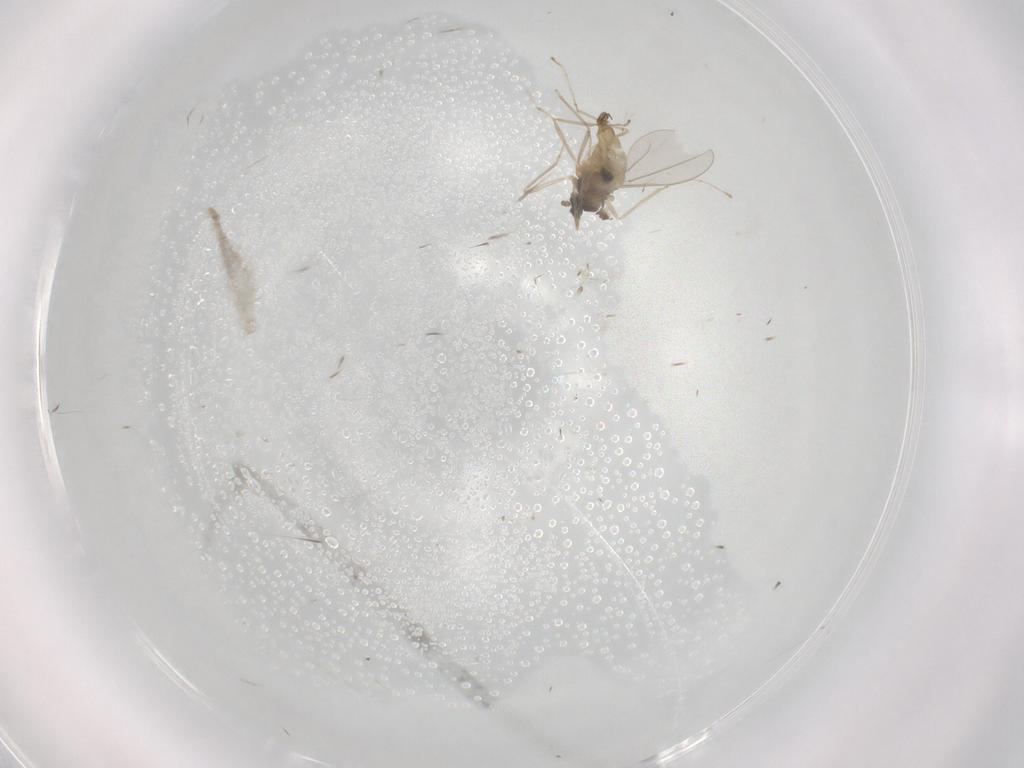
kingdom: Animalia
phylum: Arthropoda
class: Insecta
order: Diptera
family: Cecidomyiidae
